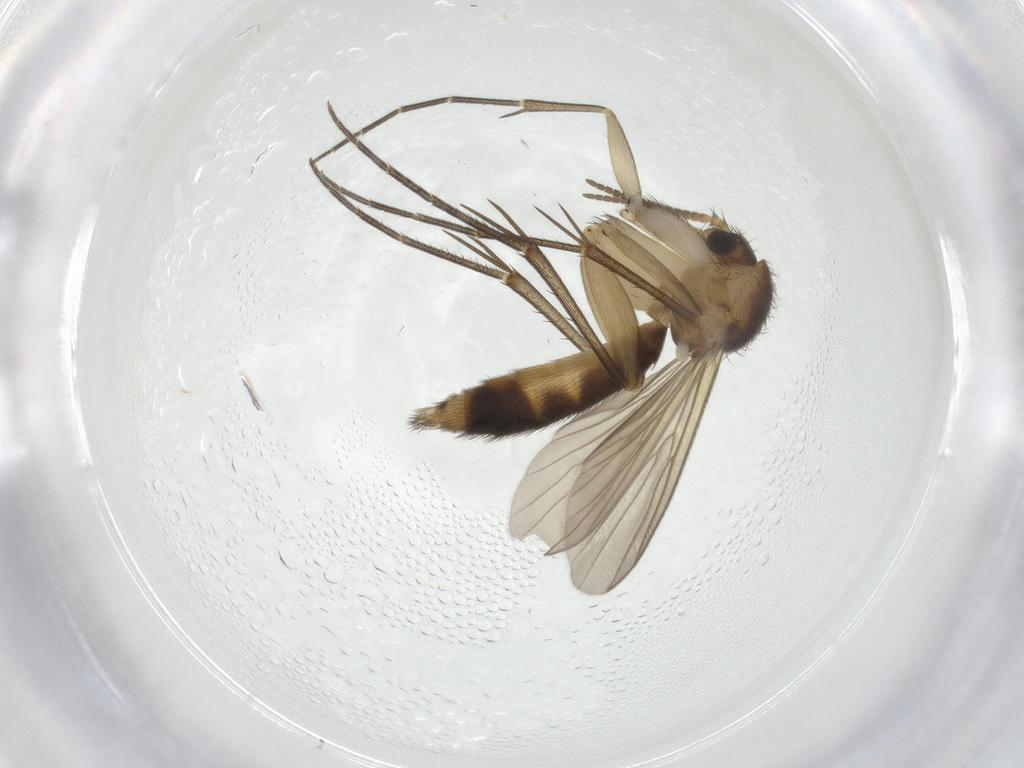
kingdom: Animalia
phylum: Arthropoda
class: Insecta
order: Diptera
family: Mycetophilidae
